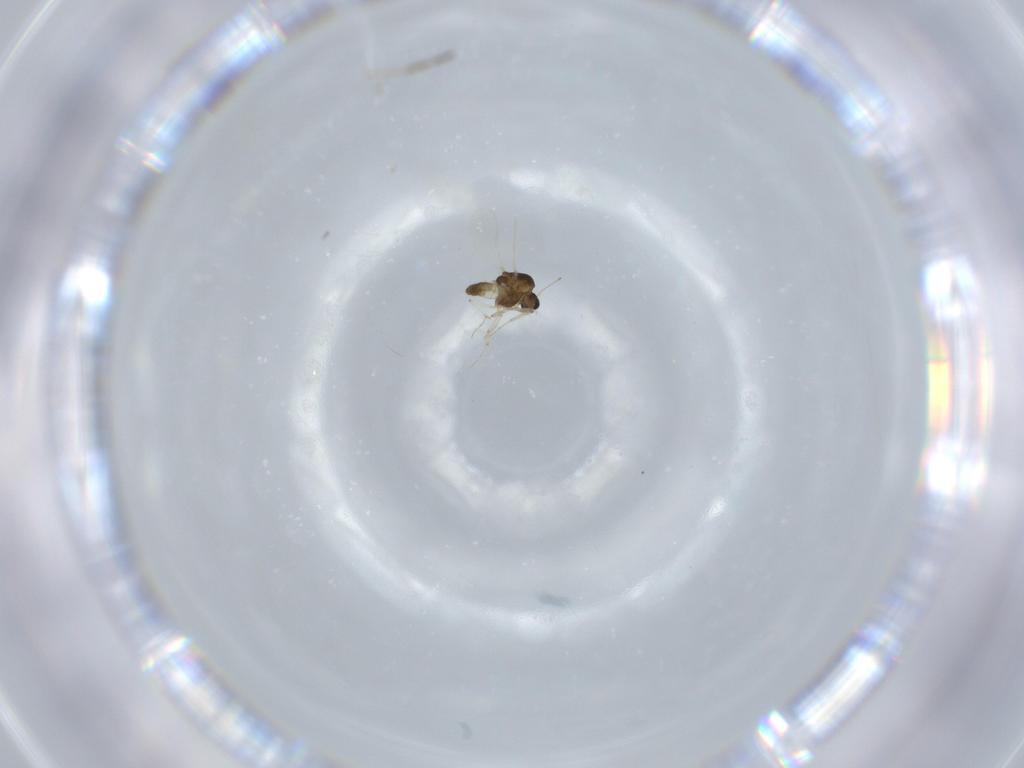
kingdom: Animalia
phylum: Arthropoda
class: Insecta
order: Diptera
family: Chironomidae
